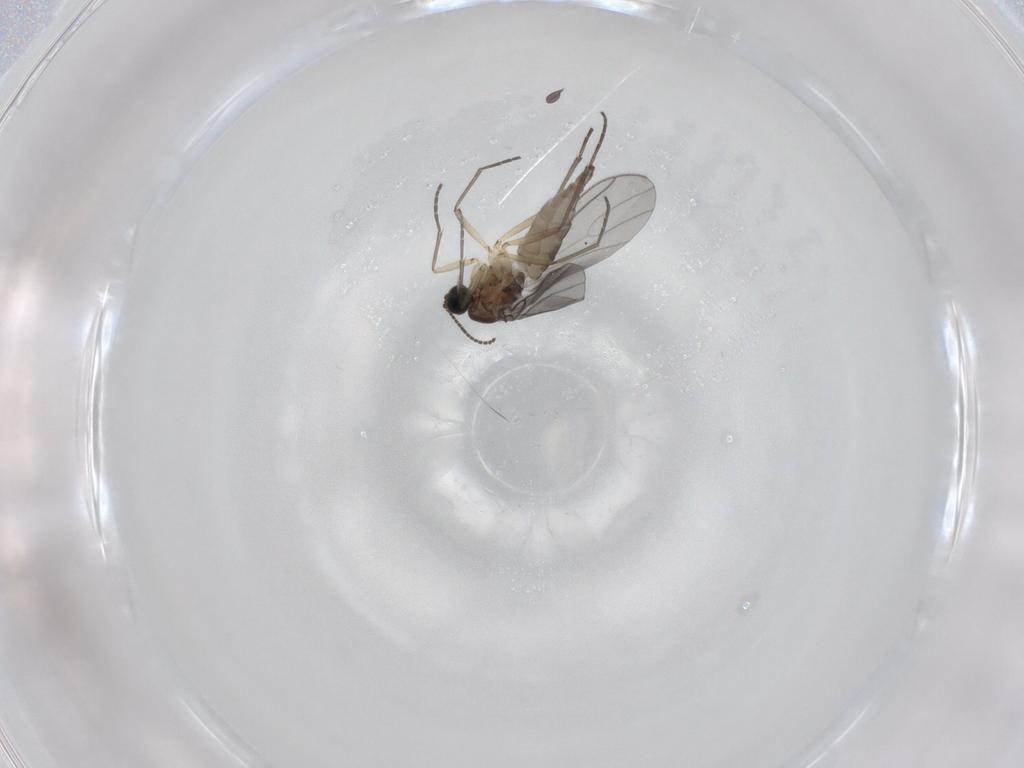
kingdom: Animalia
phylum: Arthropoda
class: Insecta
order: Diptera
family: Sciaridae
